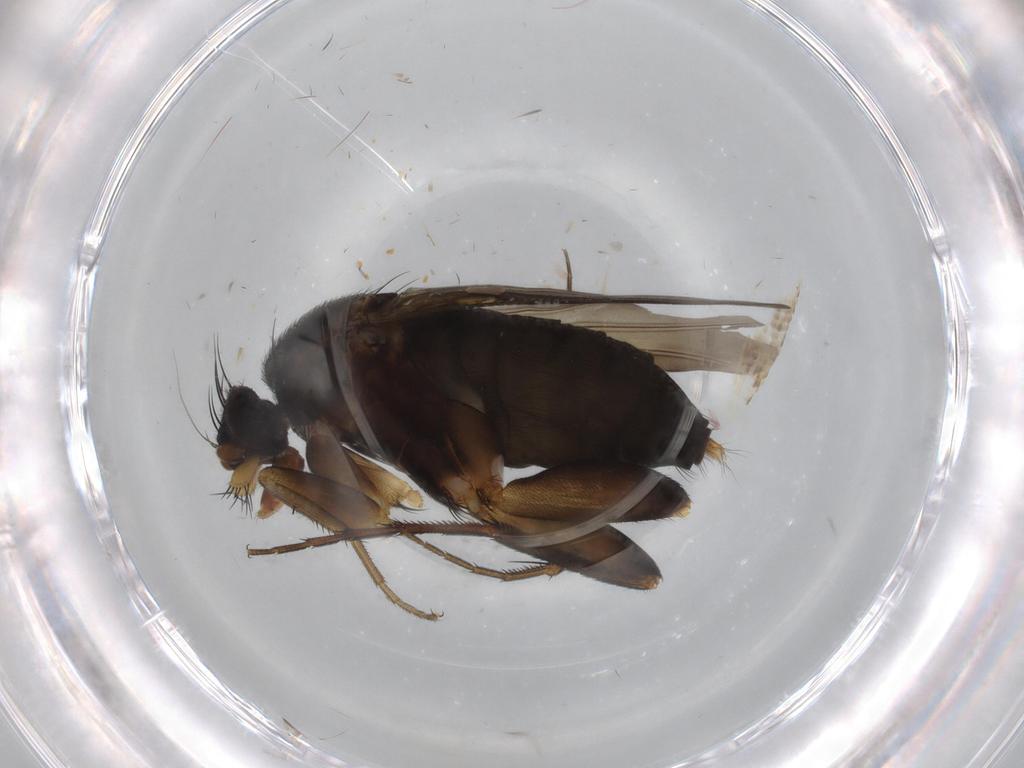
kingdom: Animalia
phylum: Arthropoda
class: Insecta
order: Diptera
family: Phoridae
